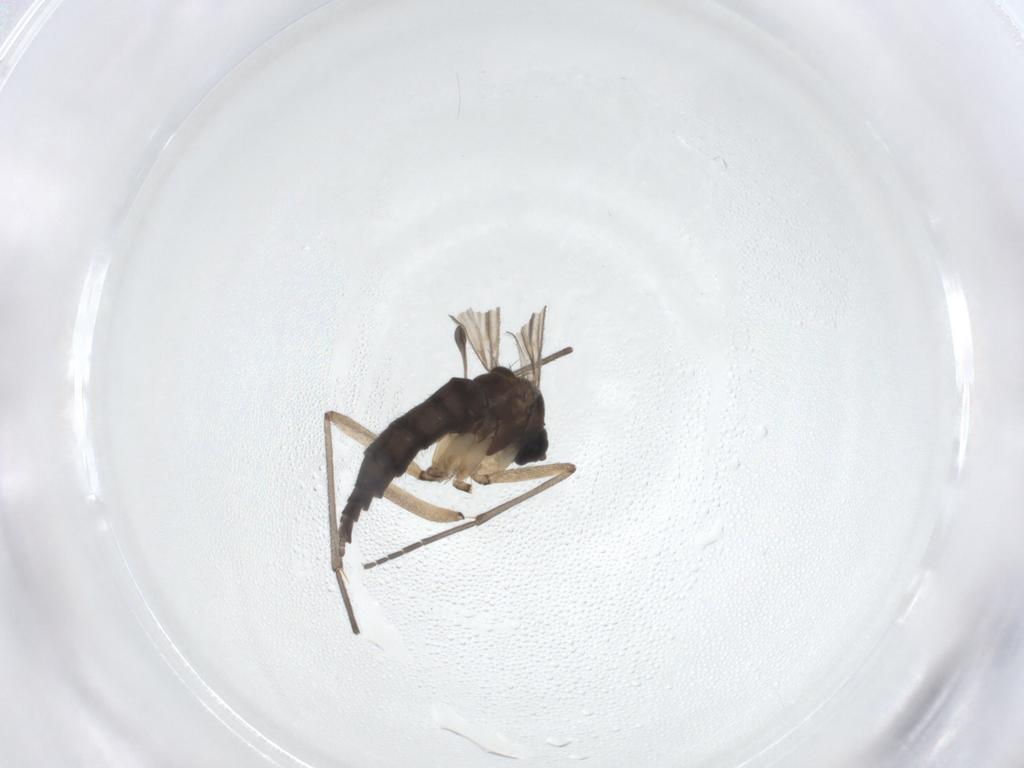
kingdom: Animalia
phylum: Arthropoda
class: Insecta
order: Diptera
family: Sciaridae
